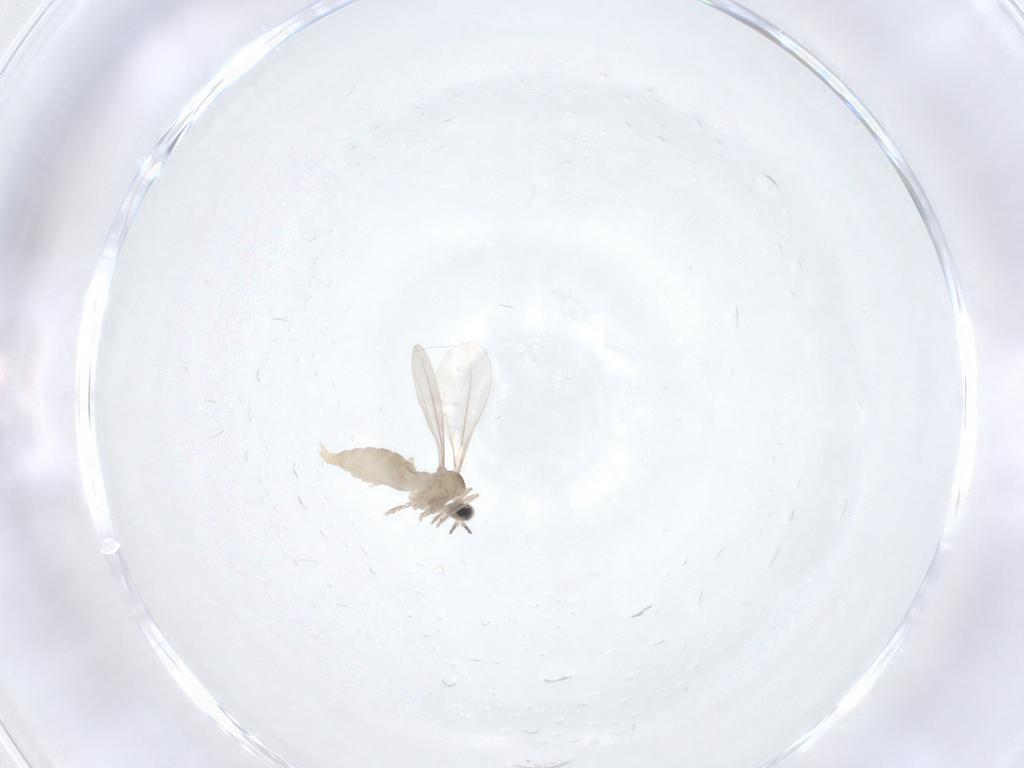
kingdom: Animalia
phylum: Arthropoda
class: Insecta
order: Diptera
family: Cecidomyiidae
